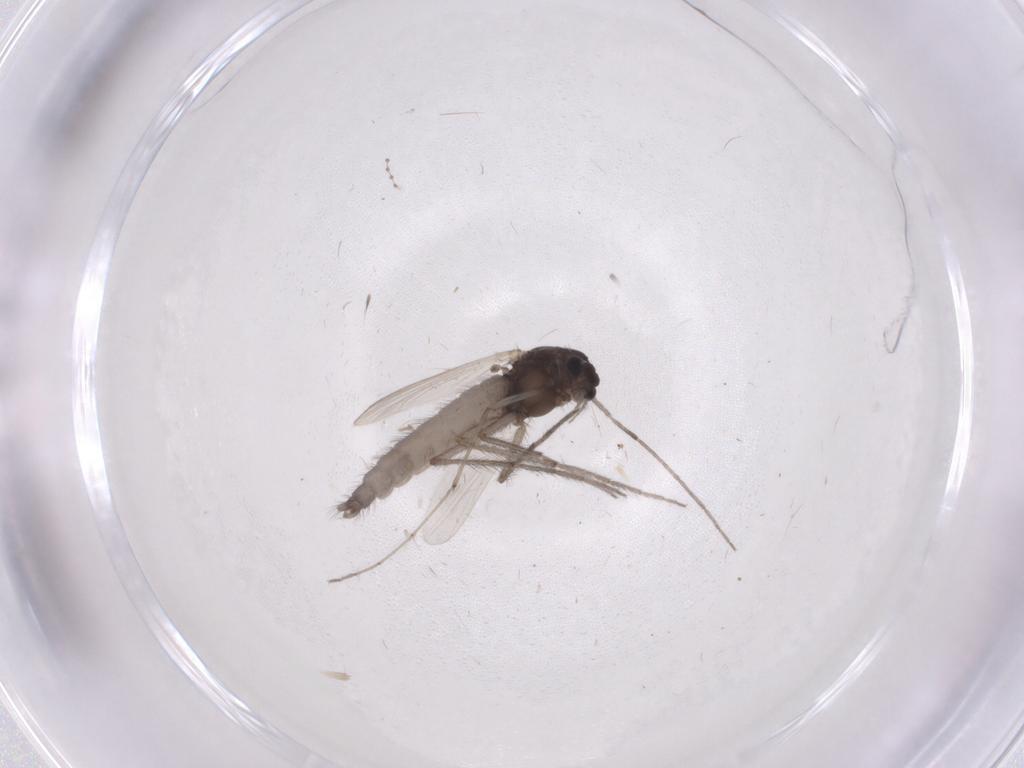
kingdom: Animalia
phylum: Arthropoda
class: Insecta
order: Diptera
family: Chironomidae
